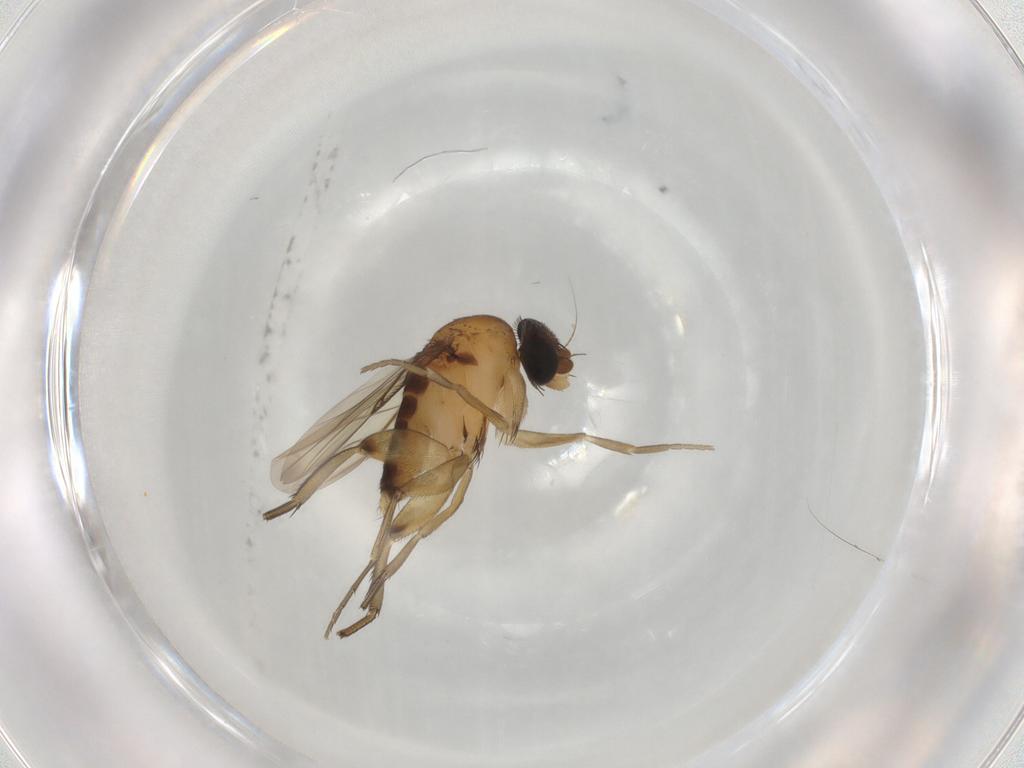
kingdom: Animalia
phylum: Arthropoda
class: Insecta
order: Diptera
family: Phoridae
